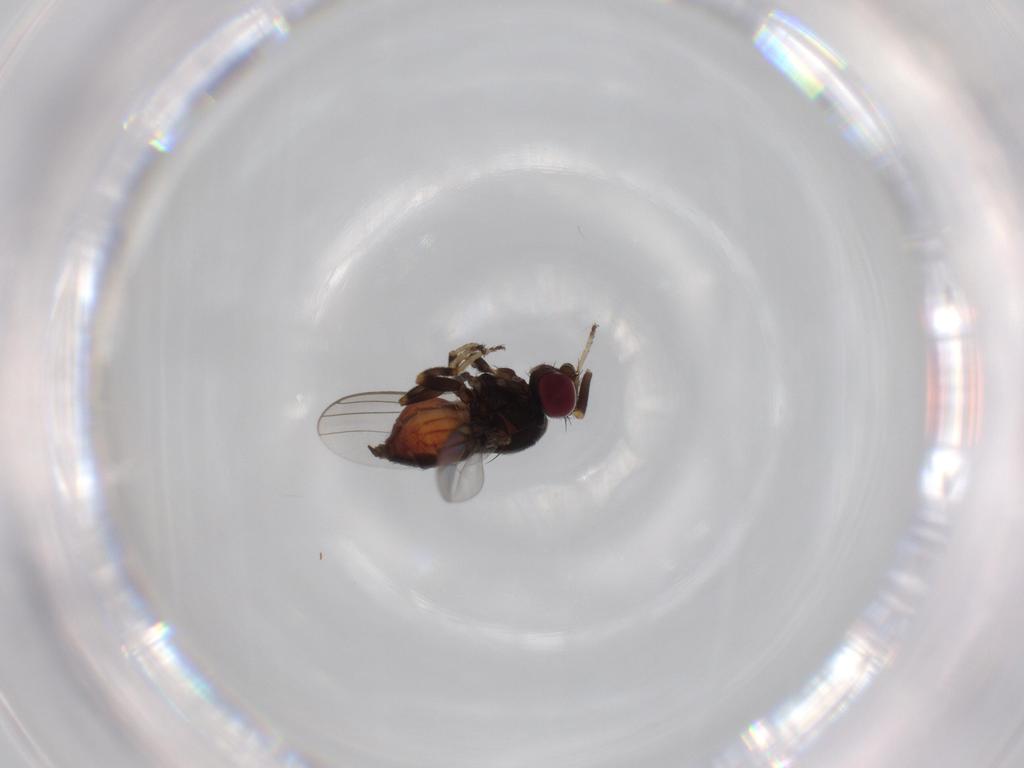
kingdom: Animalia
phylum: Arthropoda
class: Insecta
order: Diptera
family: Chloropidae
